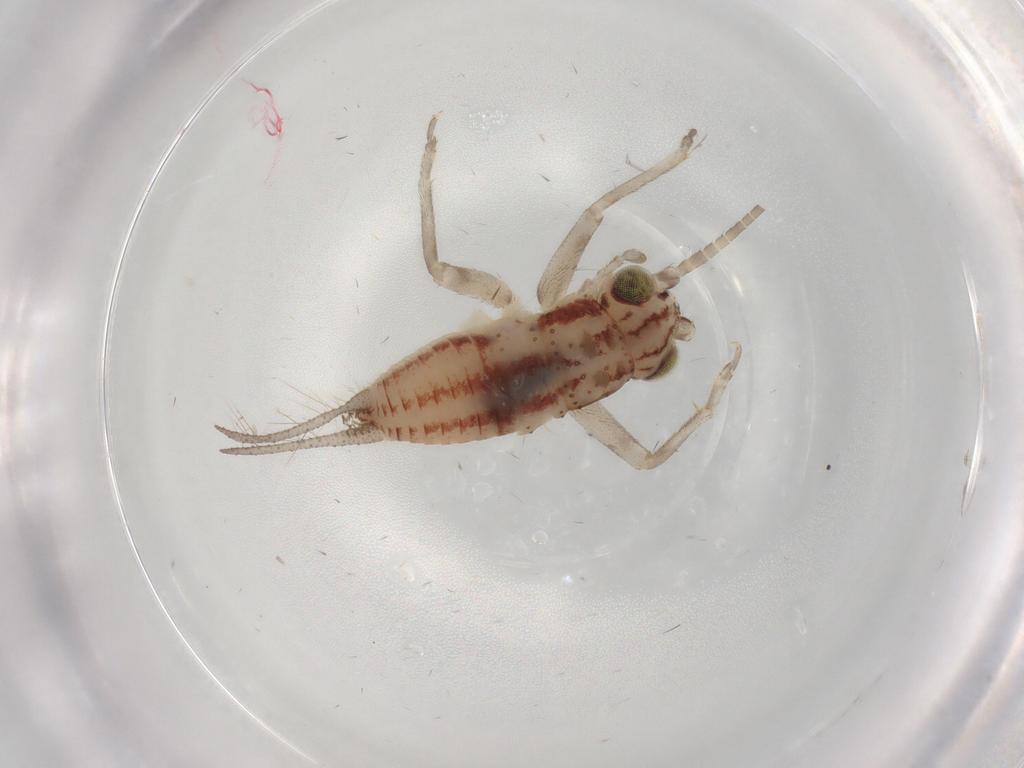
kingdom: Animalia
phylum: Arthropoda
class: Insecta
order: Orthoptera
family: Trigonidiidae
